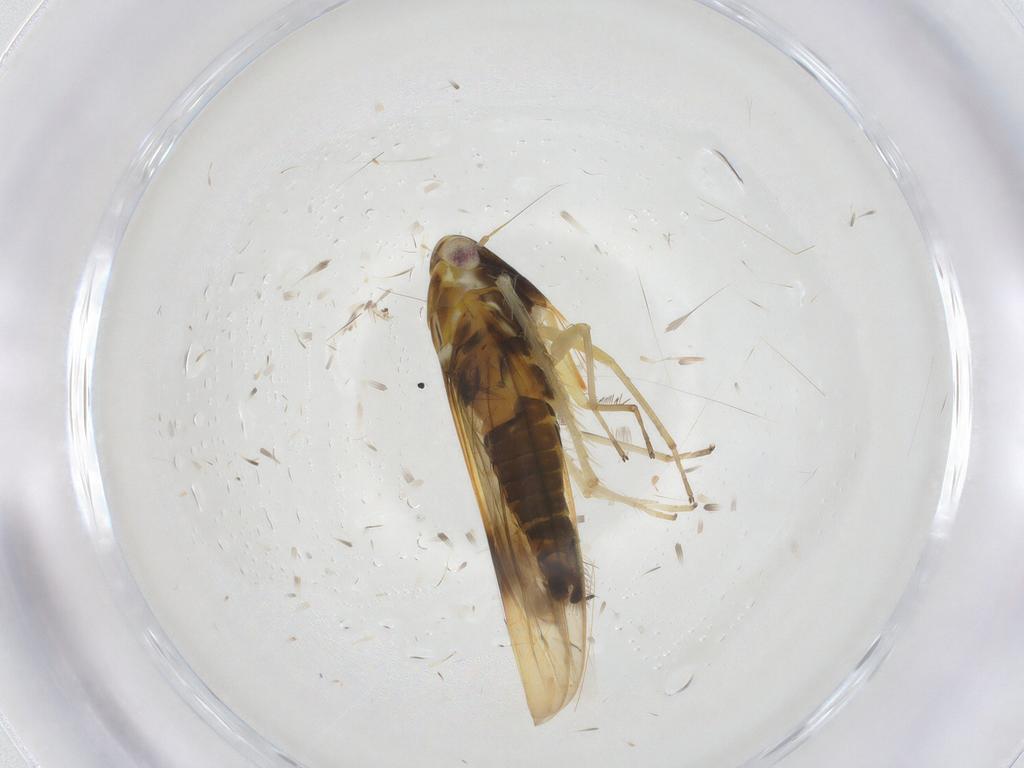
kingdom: Animalia
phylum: Arthropoda
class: Insecta
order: Hemiptera
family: Cicadellidae
